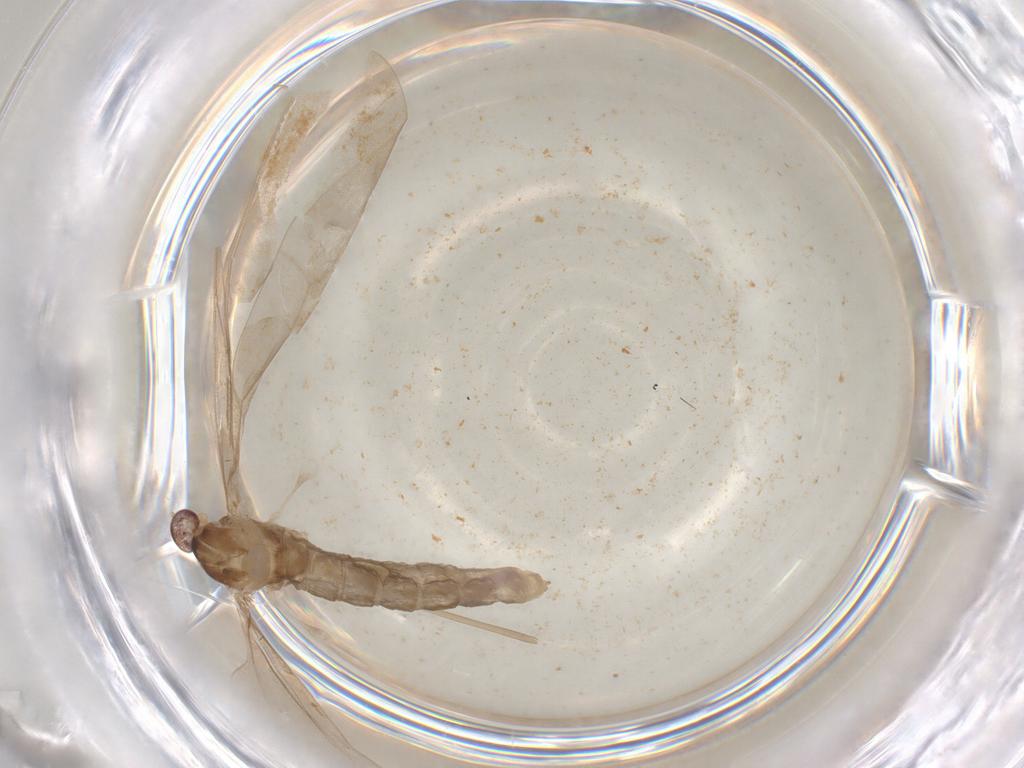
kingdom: Animalia
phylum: Arthropoda
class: Insecta
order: Diptera
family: Cecidomyiidae
